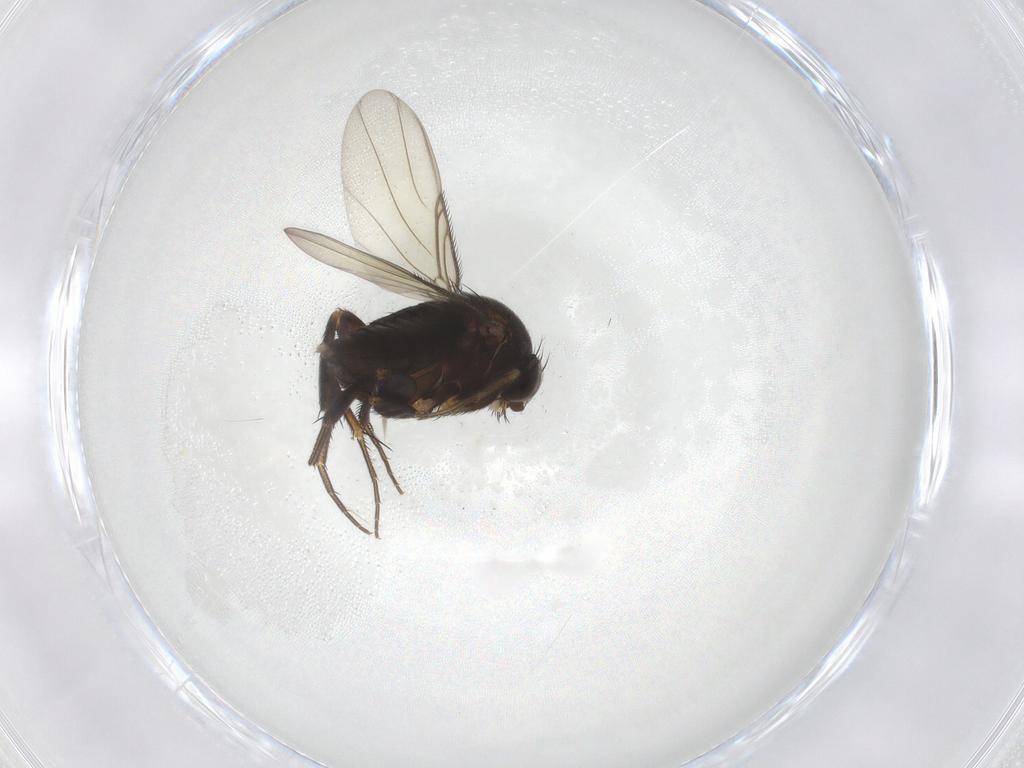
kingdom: Animalia
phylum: Arthropoda
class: Insecta
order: Diptera
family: Phoridae
